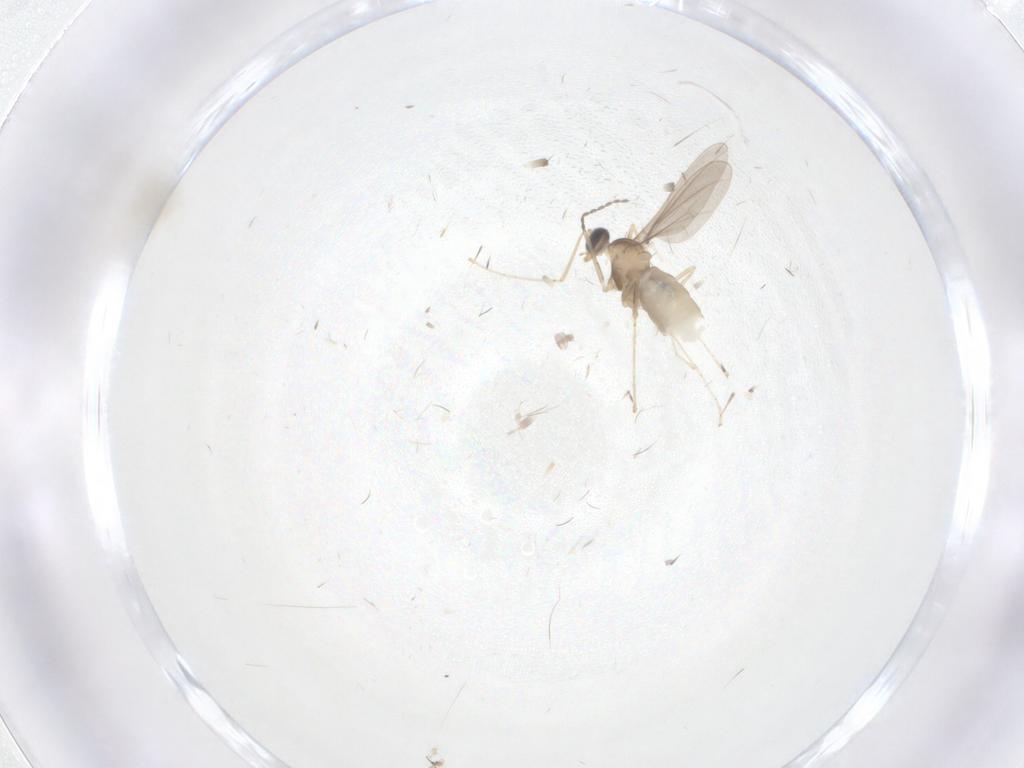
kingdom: Animalia
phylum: Arthropoda
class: Insecta
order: Diptera
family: Cecidomyiidae
